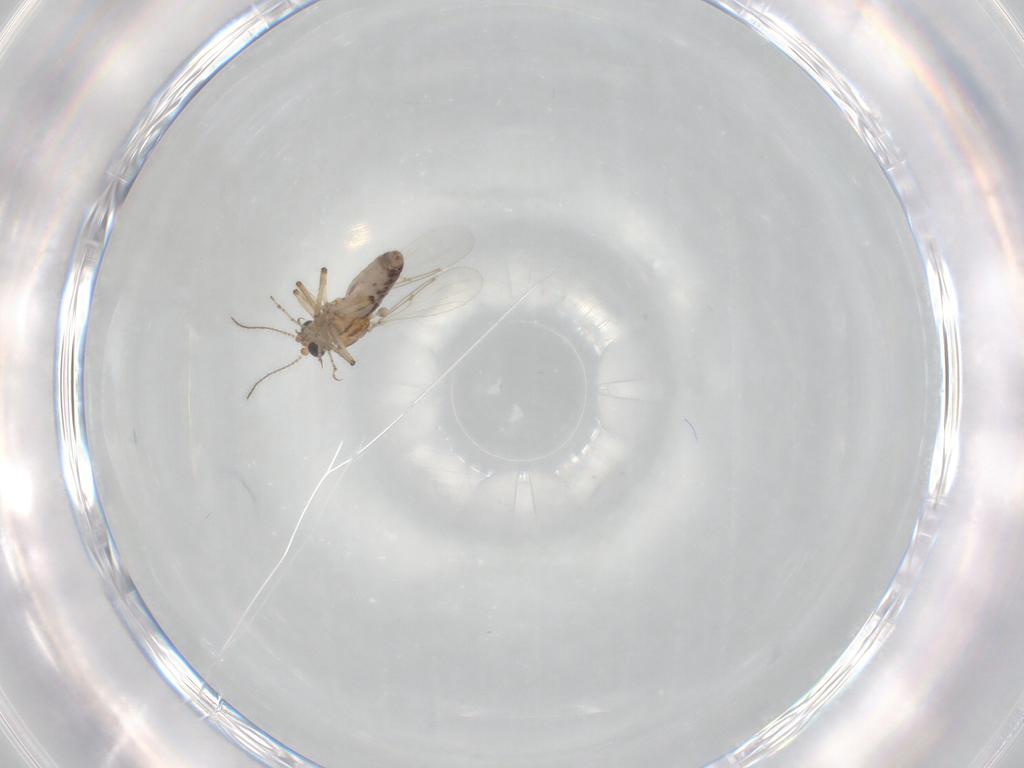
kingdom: Animalia
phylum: Arthropoda
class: Insecta
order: Diptera
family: Ceratopogonidae
